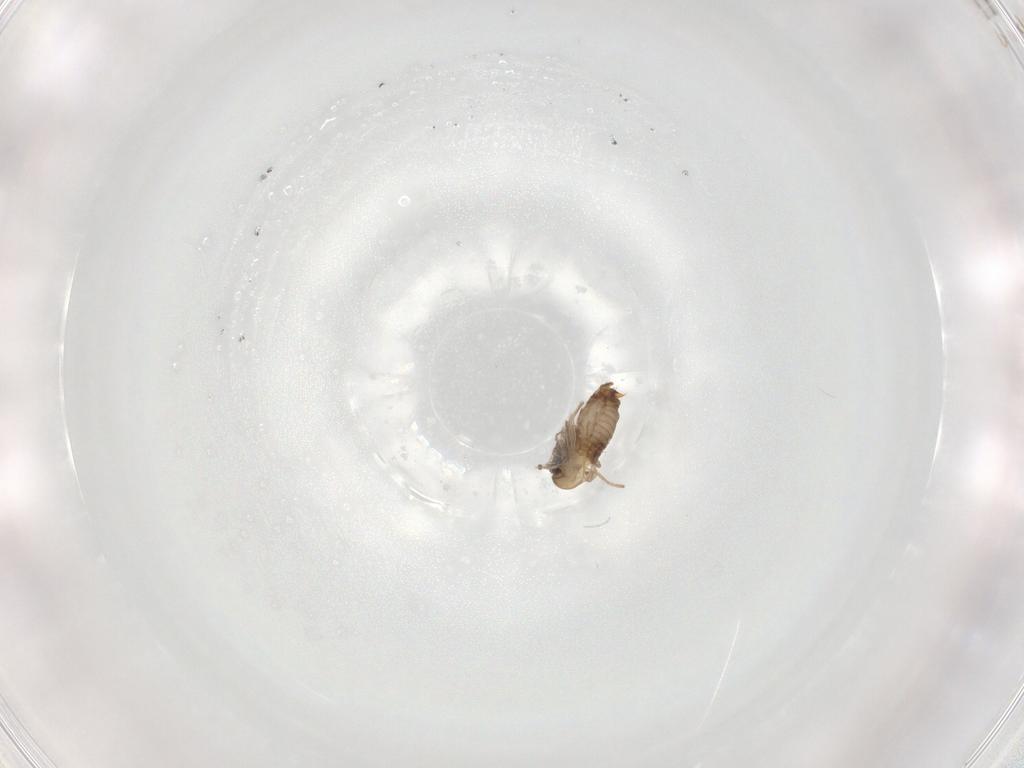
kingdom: Animalia
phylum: Arthropoda
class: Insecta
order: Diptera
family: Psychodidae
